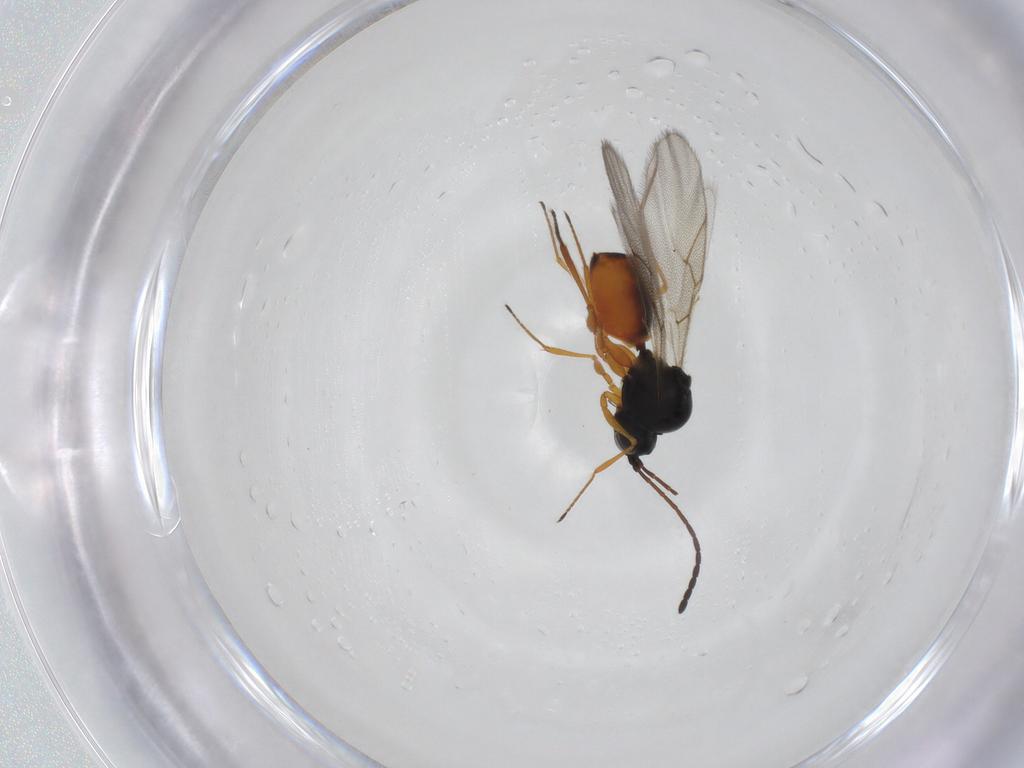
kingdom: Animalia
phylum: Arthropoda
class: Insecta
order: Hymenoptera
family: Figitidae
